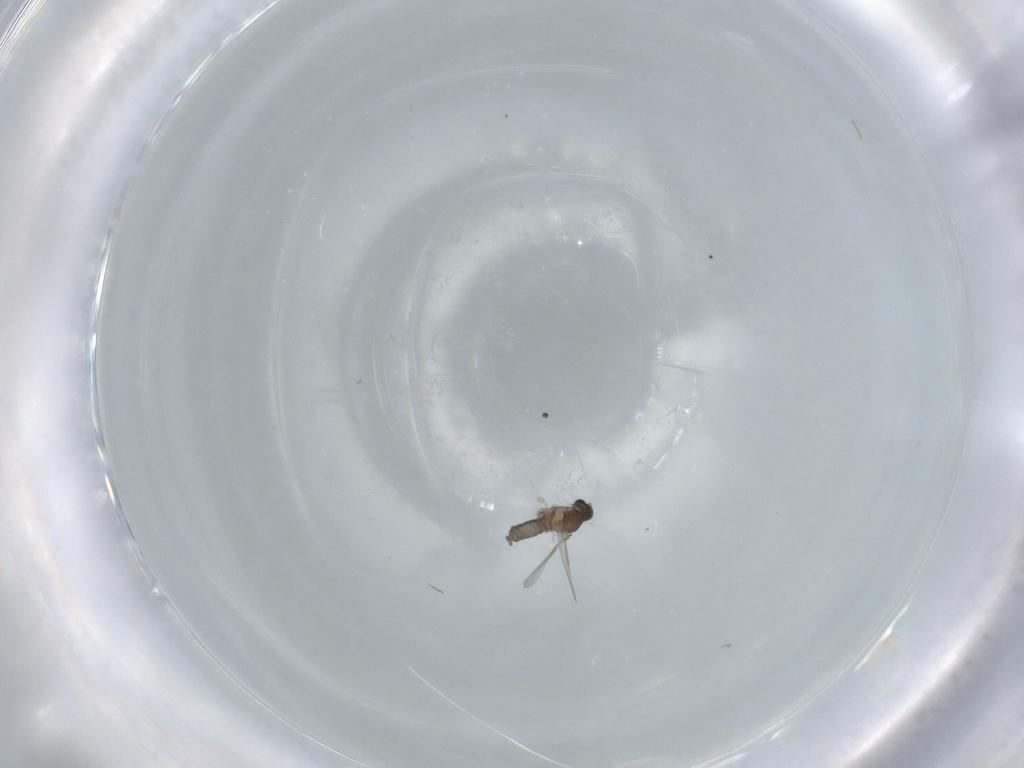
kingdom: Animalia
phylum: Arthropoda
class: Insecta
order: Diptera
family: Cecidomyiidae
